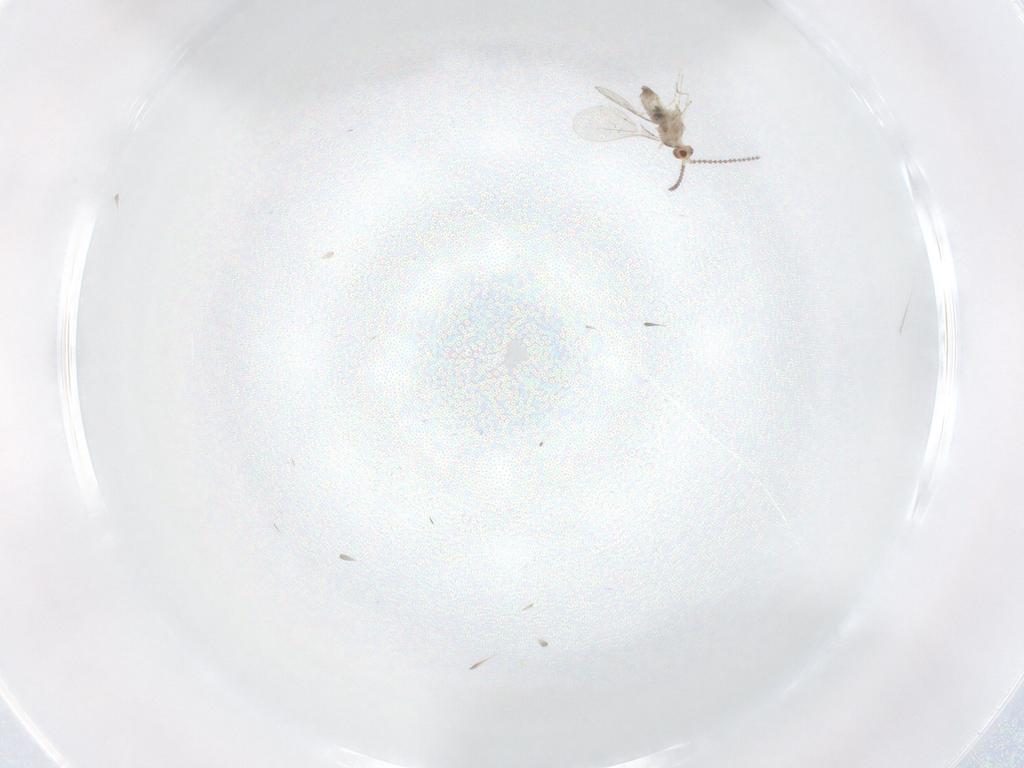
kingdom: Animalia
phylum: Arthropoda
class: Insecta
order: Diptera
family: Cecidomyiidae
